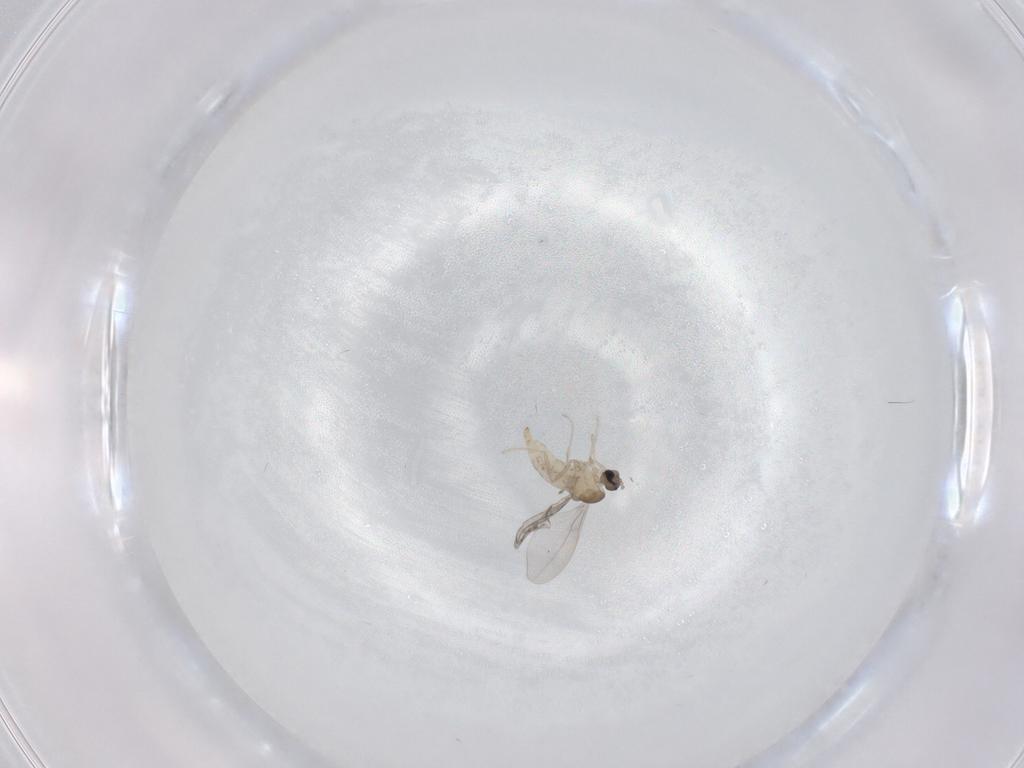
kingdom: Animalia
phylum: Arthropoda
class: Insecta
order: Diptera
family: Cecidomyiidae
